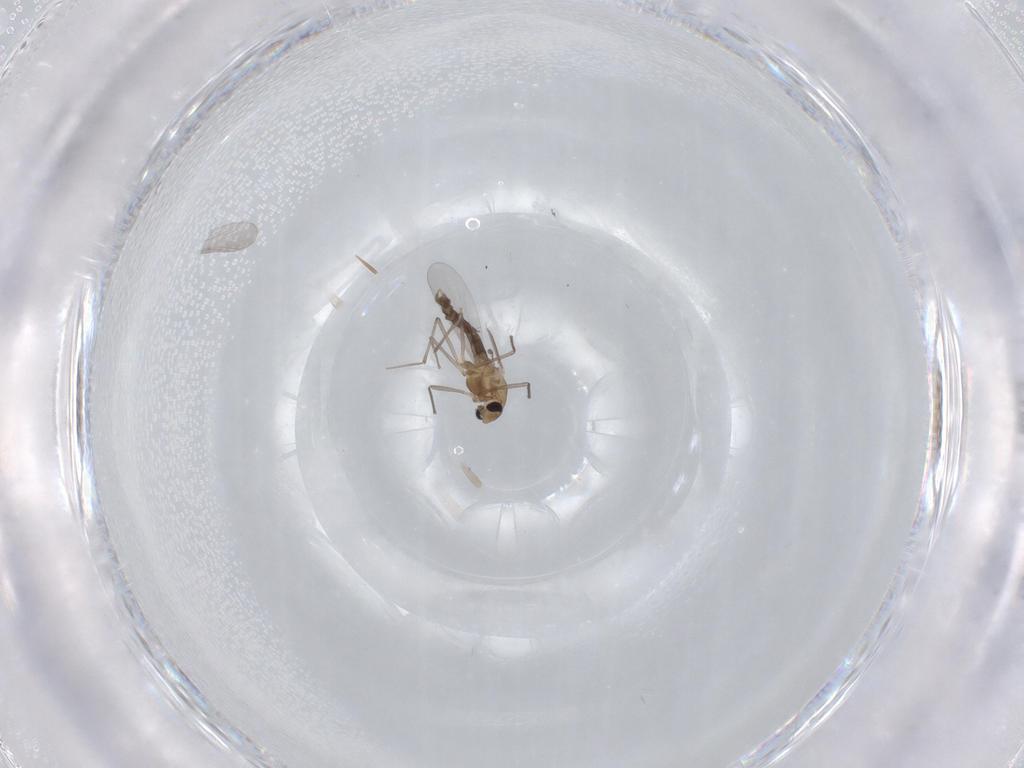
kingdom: Animalia
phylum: Arthropoda
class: Insecta
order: Diptera
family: Chironomidae
